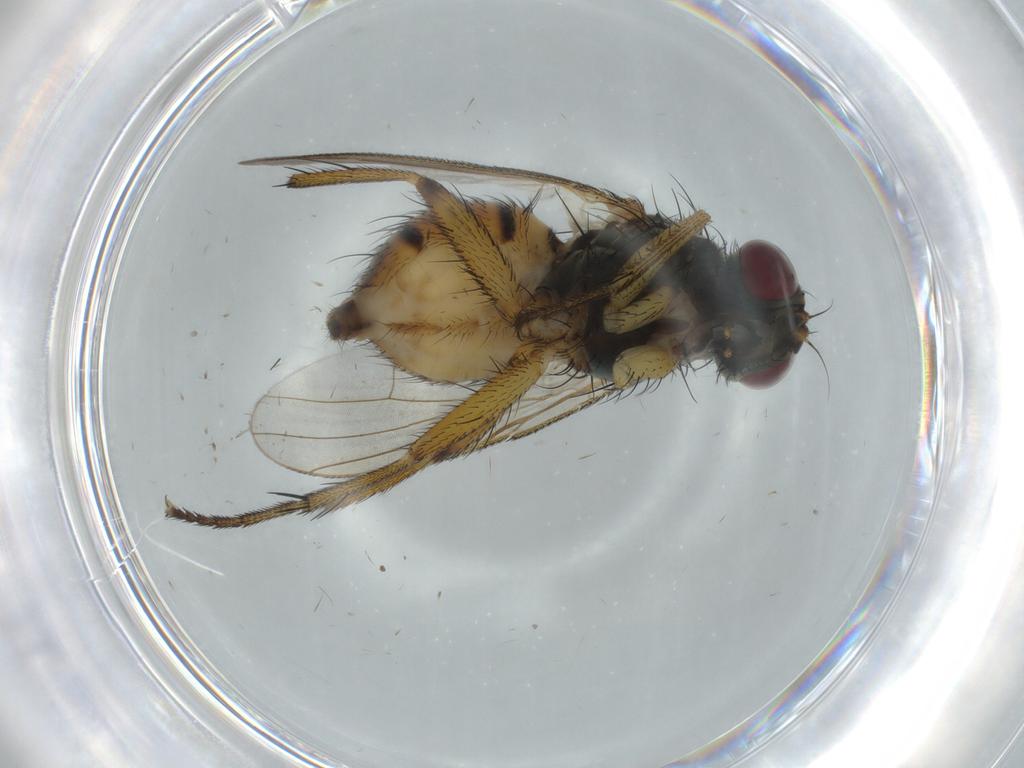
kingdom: Animalia
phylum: Arthropoda
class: Insecta
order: Diptera
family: Muscidae
